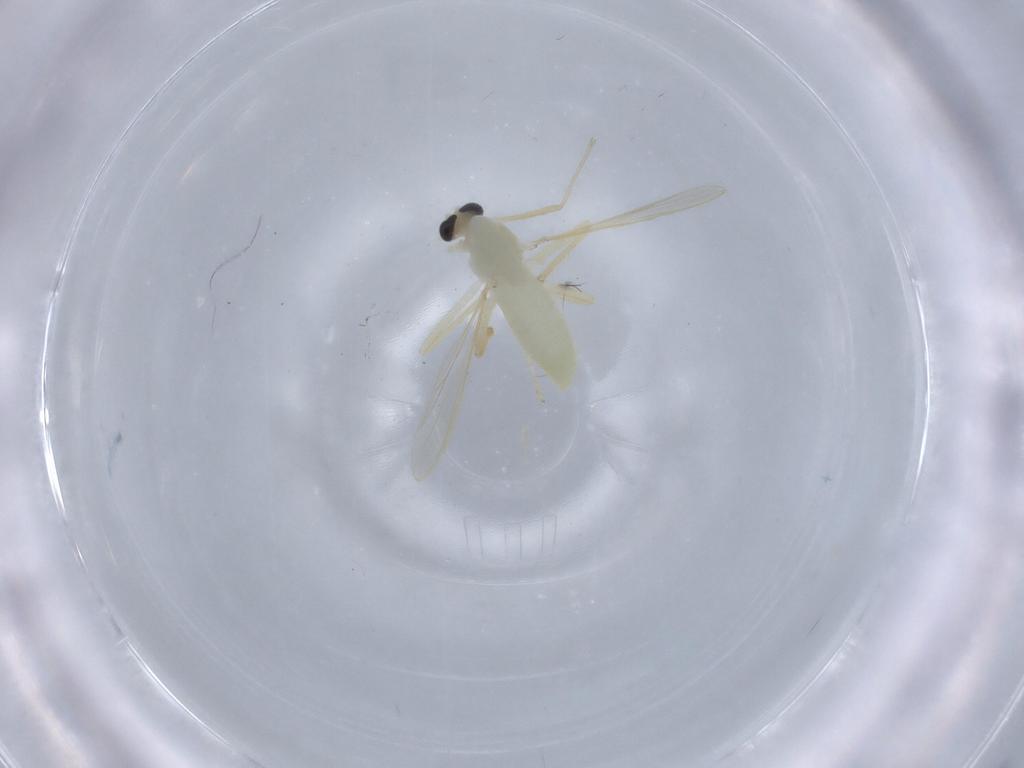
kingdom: Animalia
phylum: Arthropoda
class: Insecta
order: Diptera
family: Chironomidae
